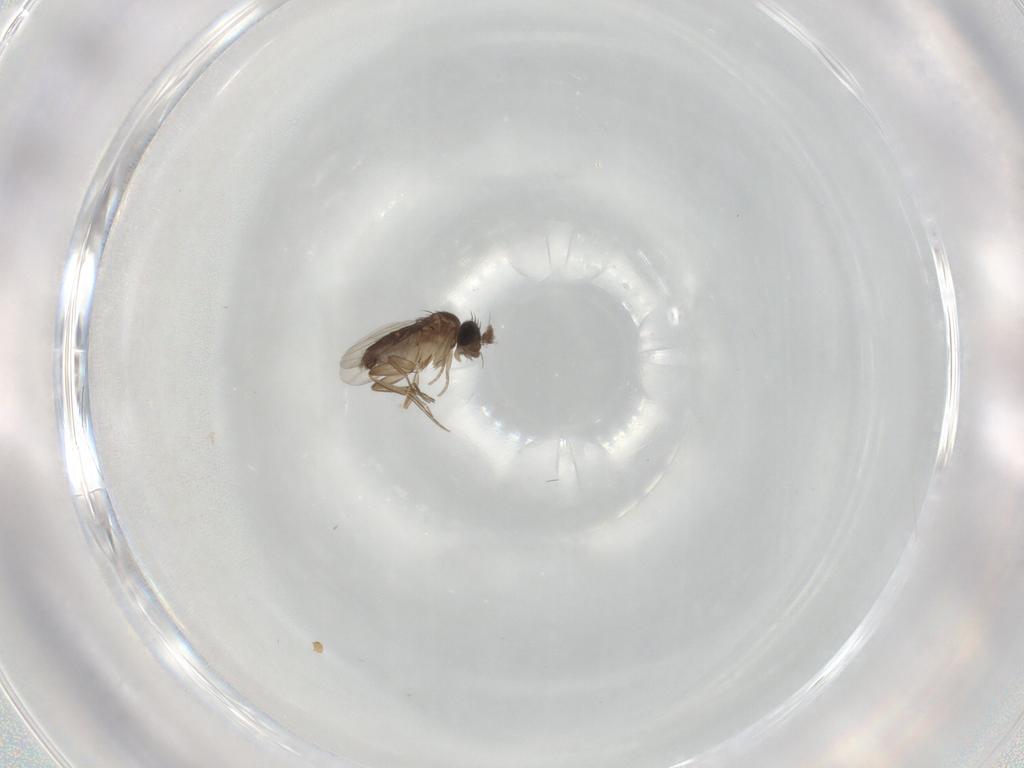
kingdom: Animalia
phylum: Arthropoda
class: Insecta
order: Diptera
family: Phoridae
